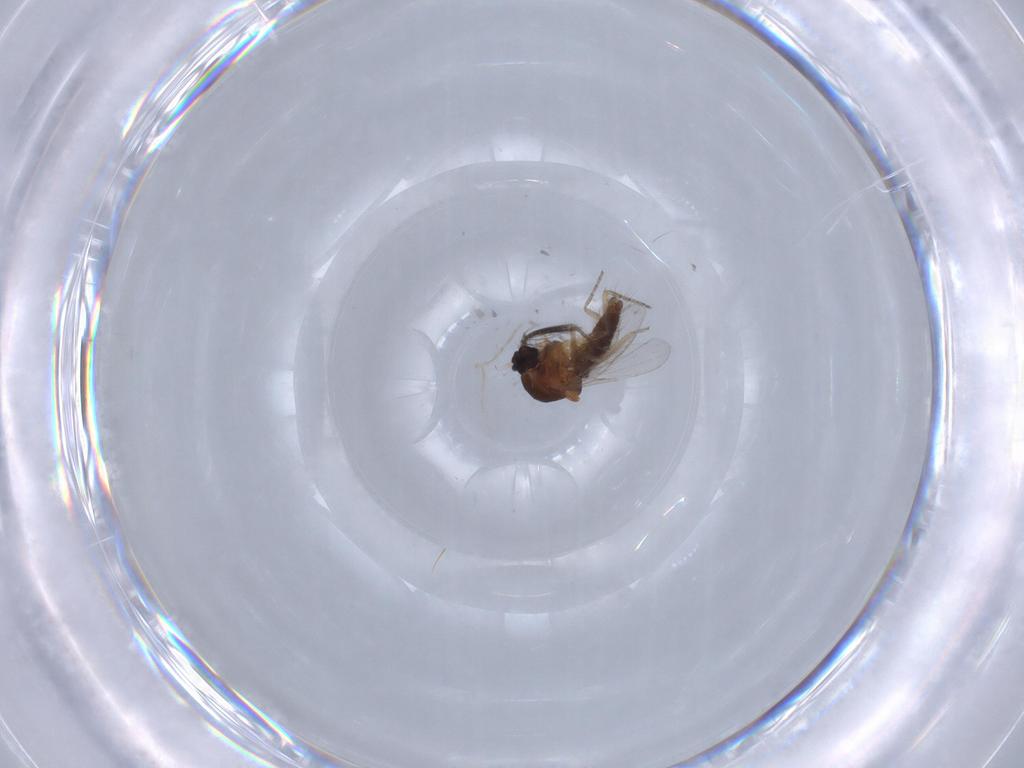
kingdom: Animalia
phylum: Arthropoda
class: Insecta
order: Diptera
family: Ceratopogonidae
